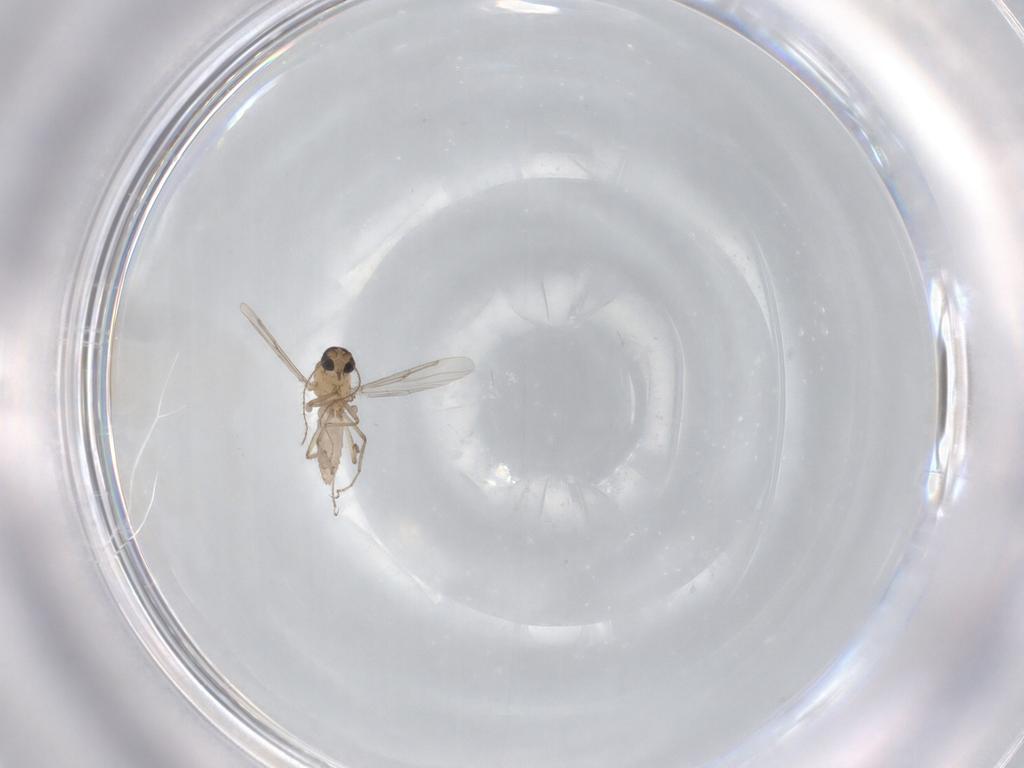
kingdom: Animalia
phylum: Arthropoda
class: Insecta
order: Diptera
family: Ceratopogonidae
